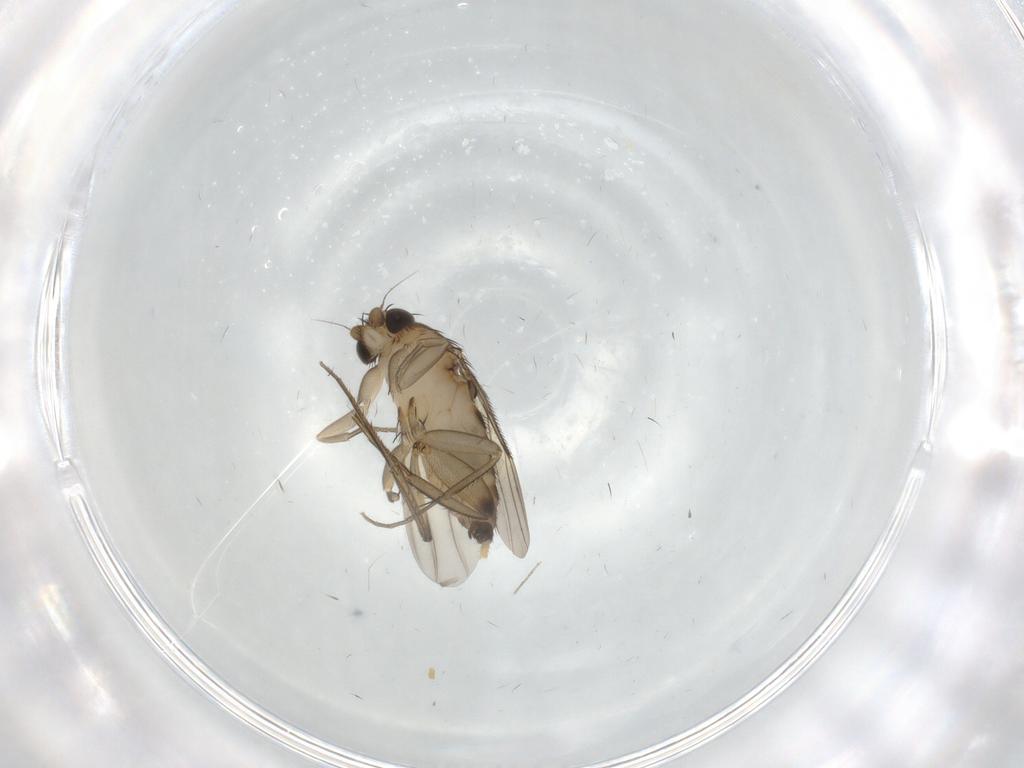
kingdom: Animalia
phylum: Arthropoda
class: Insecta
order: Diptera
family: Phoridae
